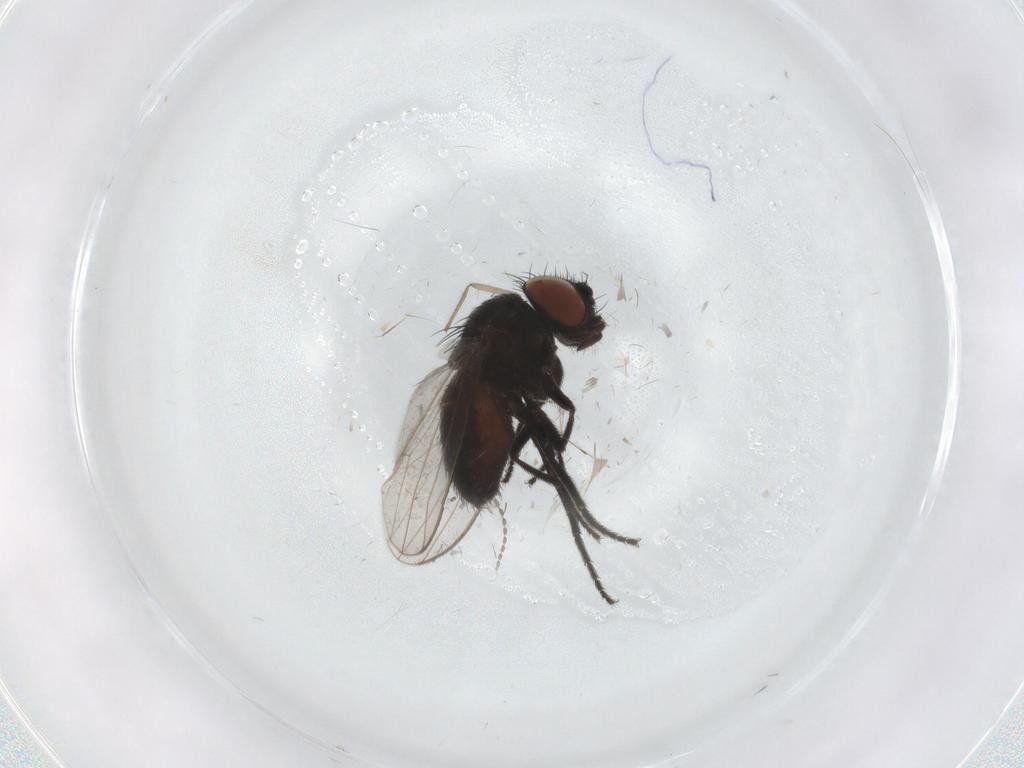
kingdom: Animalia
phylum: Arthropoda
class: Insecta
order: Diptera
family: Milichiidae
